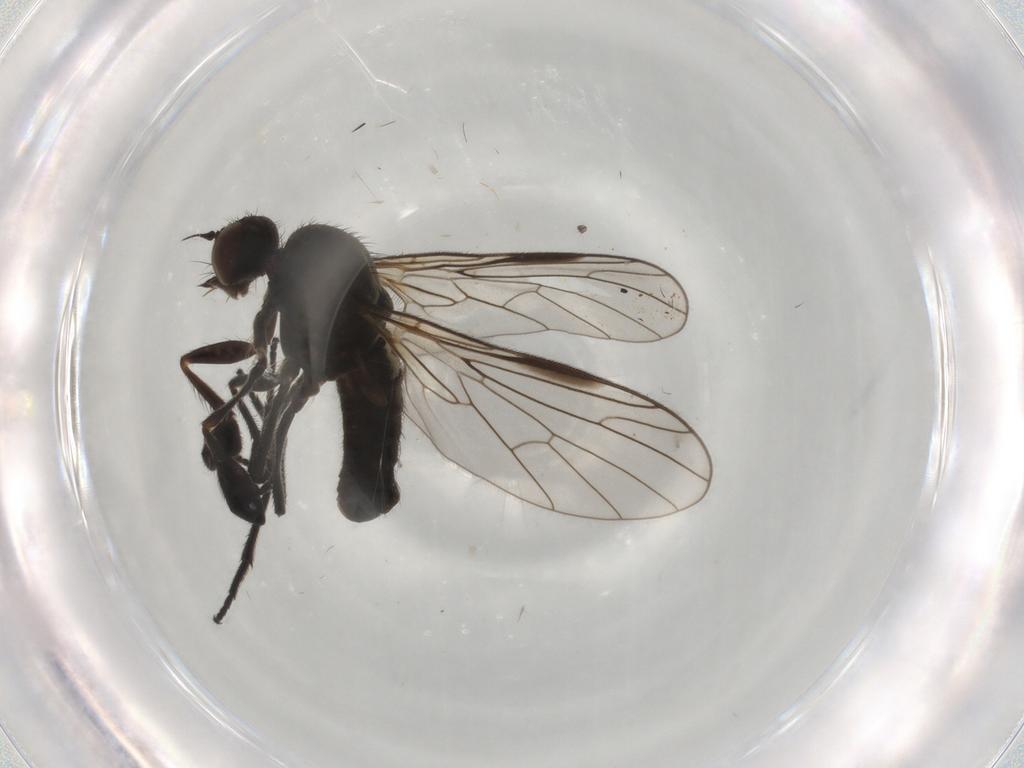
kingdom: Animalia
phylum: Arthropoda
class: Insecta
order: Diptera
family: Empididae
